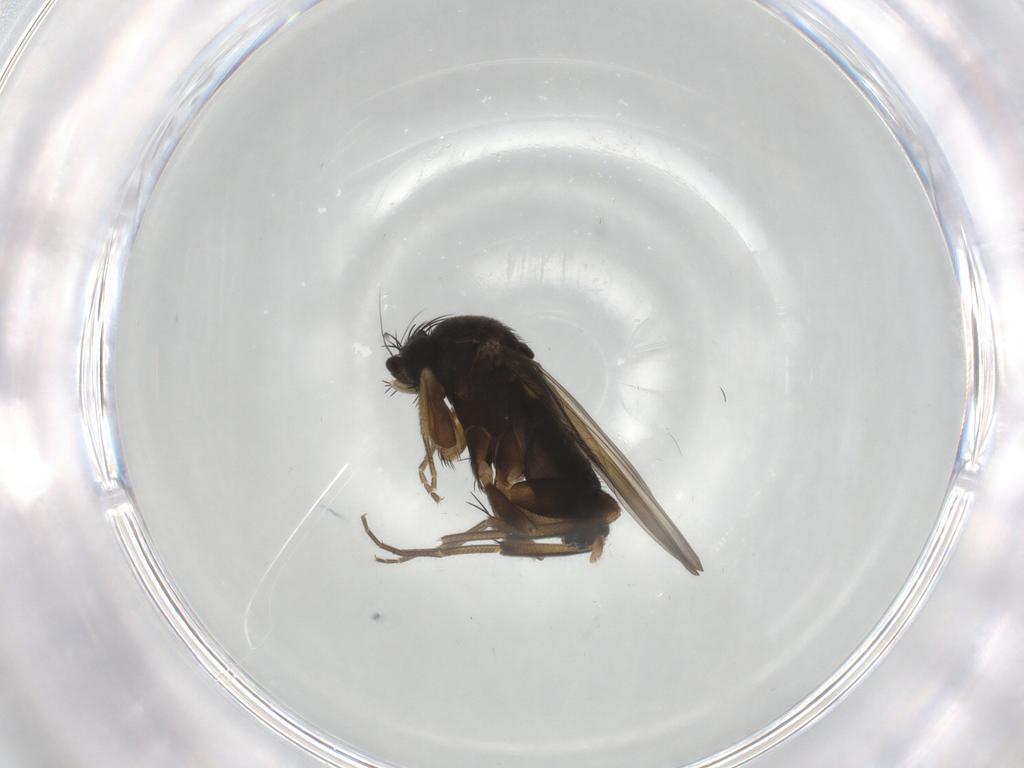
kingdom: Animalia
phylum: Arthropoda
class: Insecta
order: Diptera
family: Phoridae
